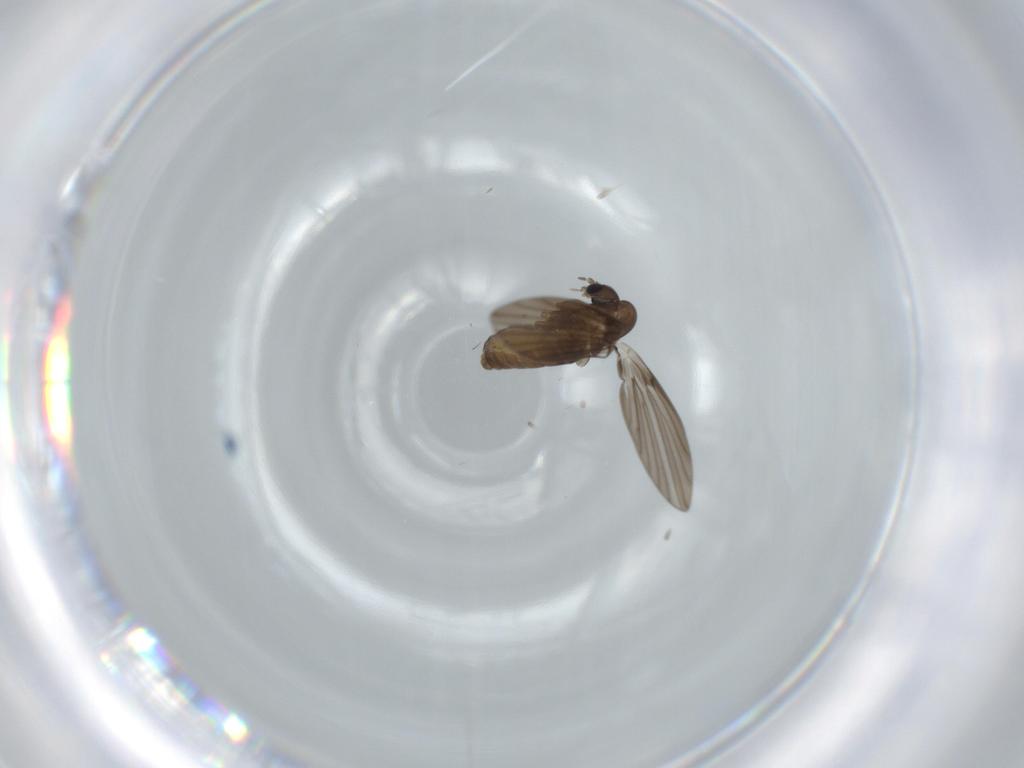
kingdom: Animalia
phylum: Arthropoda
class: Insecta
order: Diptera
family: Psychodidae
